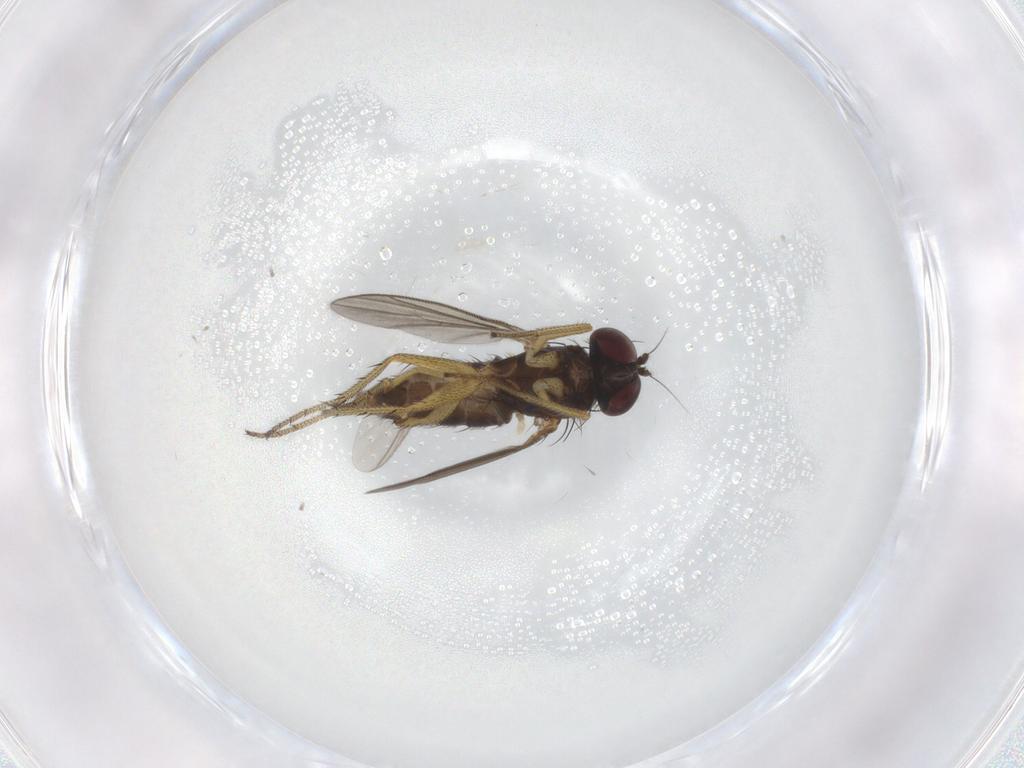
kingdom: Animalia
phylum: Arthropoda
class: Insecta
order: Diptera
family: Dolichopodidae
